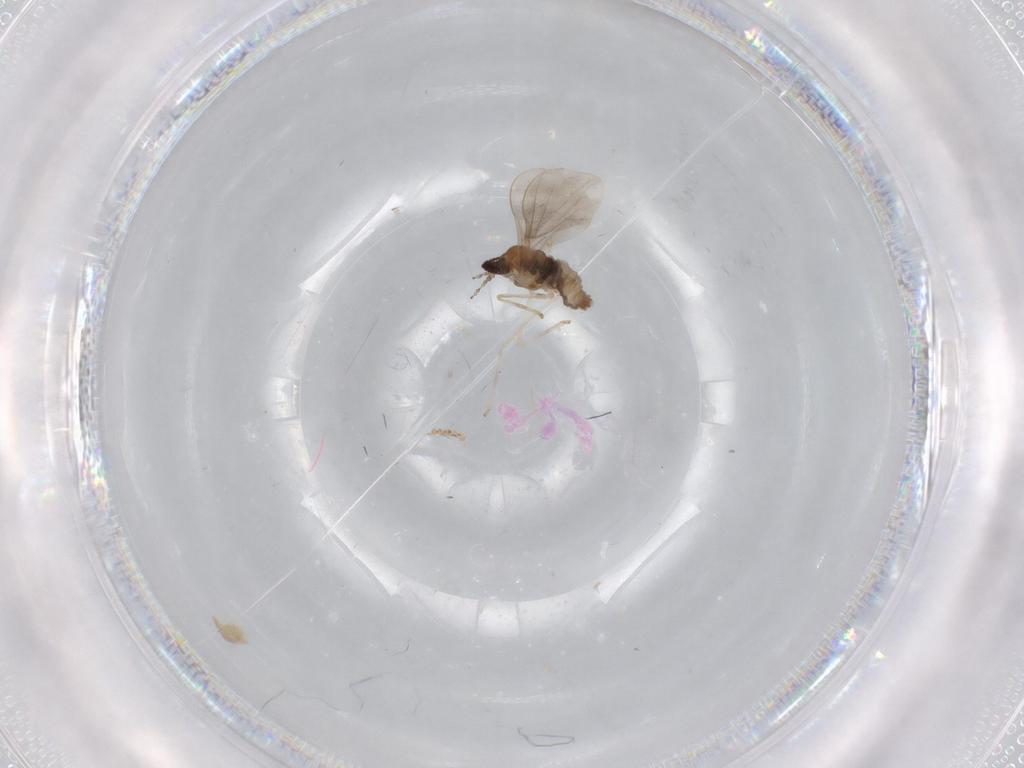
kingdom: Animalia
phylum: Arthropoda
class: Insecta
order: Diptera
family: Cecidomyiidae
